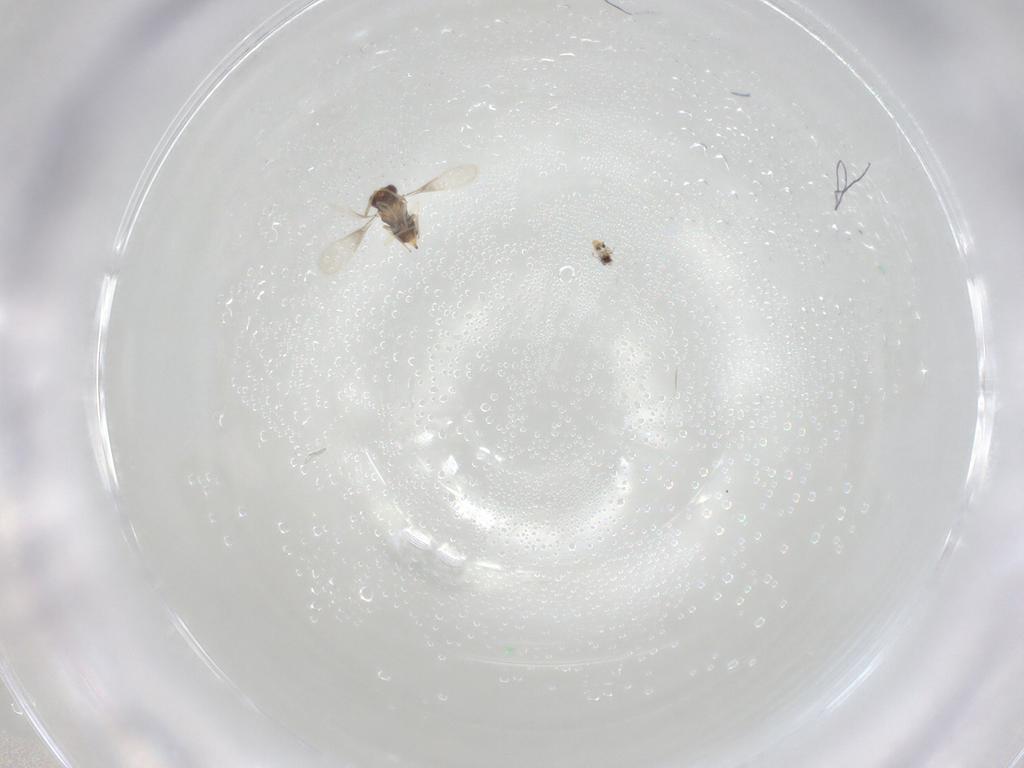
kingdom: Animalia
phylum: Arthropoda
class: Insecta
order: Hymenoptera
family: Aphelinidae
